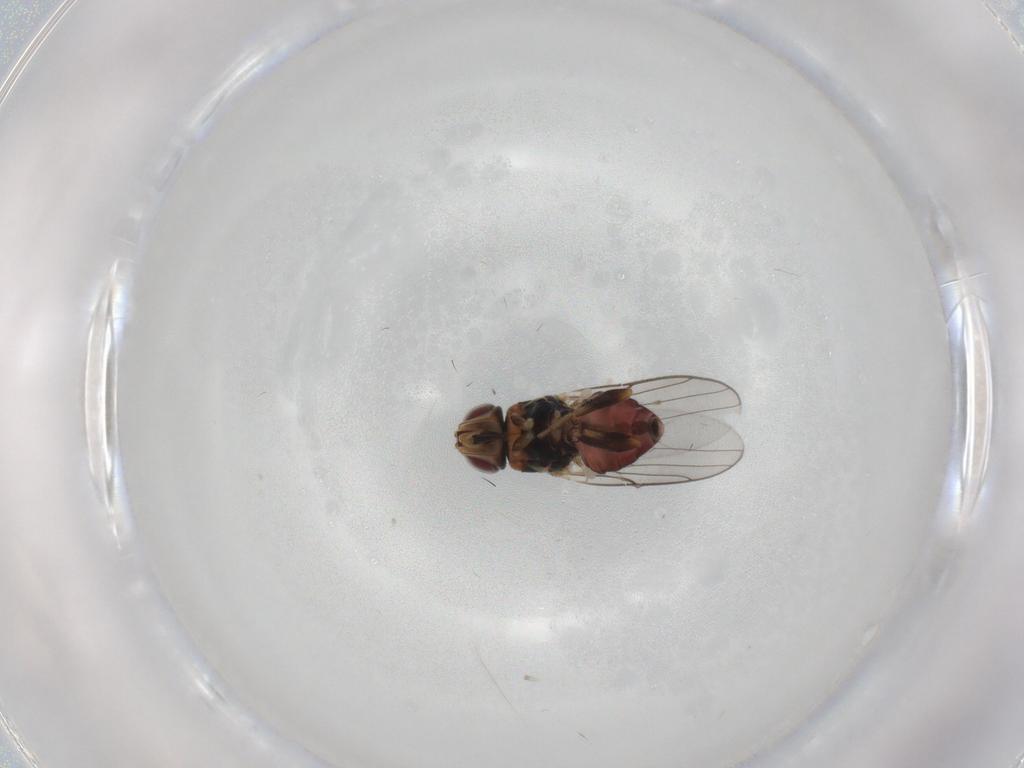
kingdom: Animalia
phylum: Arthropoda
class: Insecta
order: Diptera
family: Chloropidae
